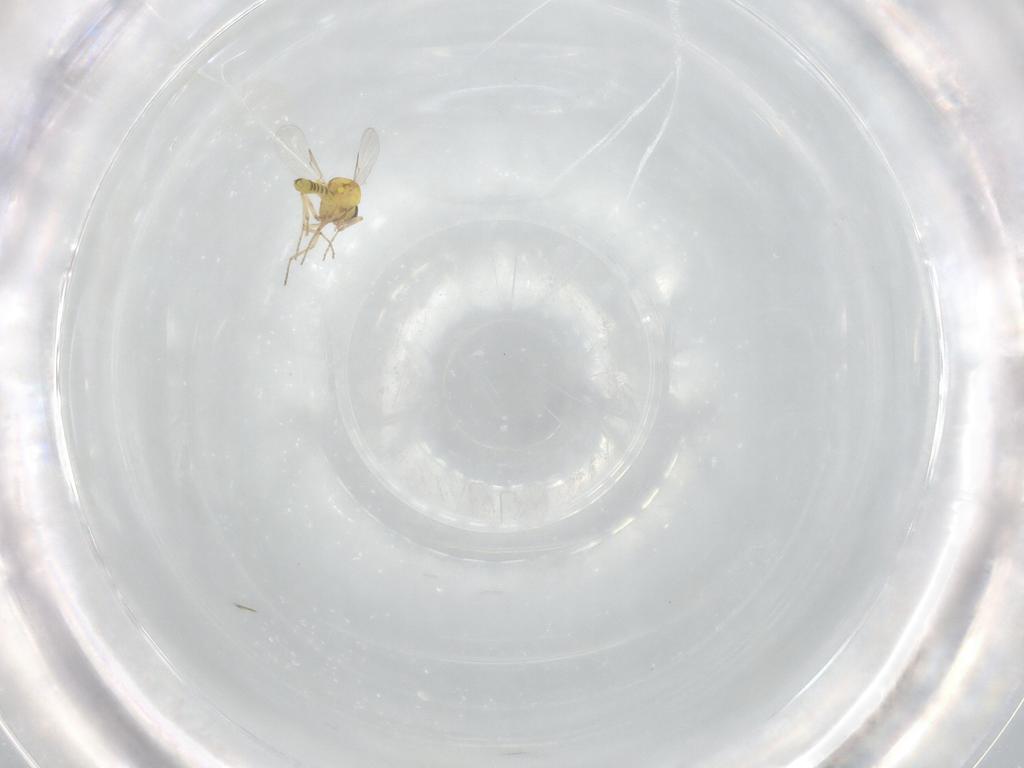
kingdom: Animalia
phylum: Arthropoda
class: Insecta
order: Diptera
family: Ceratopogonidae
